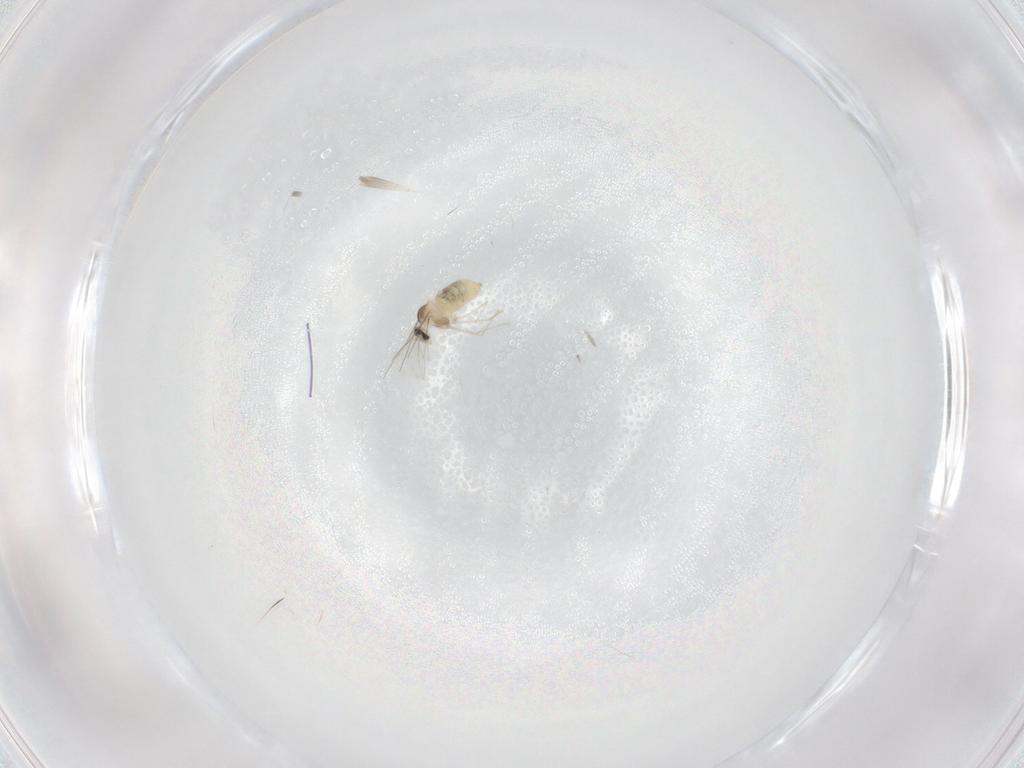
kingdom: Animalia
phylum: Arthropoda
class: Insecta
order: Diptera
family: Cecidomyiidae
